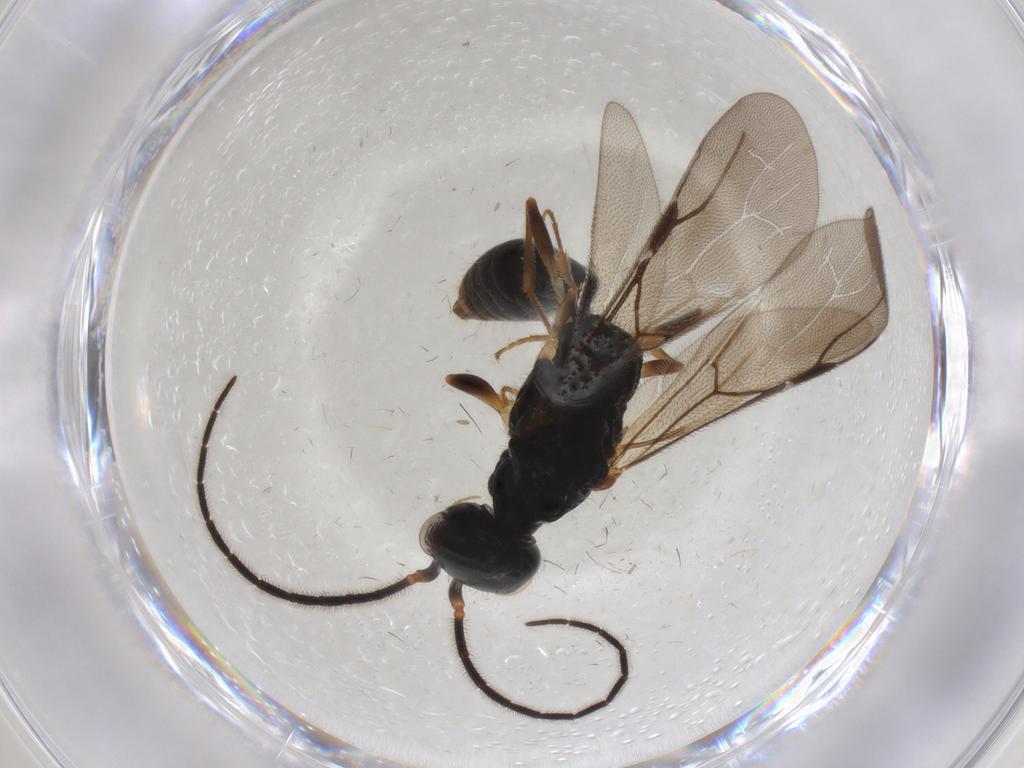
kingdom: Animalia
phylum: Arthropoda
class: Insecta
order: Diptera
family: Rhagionidae
